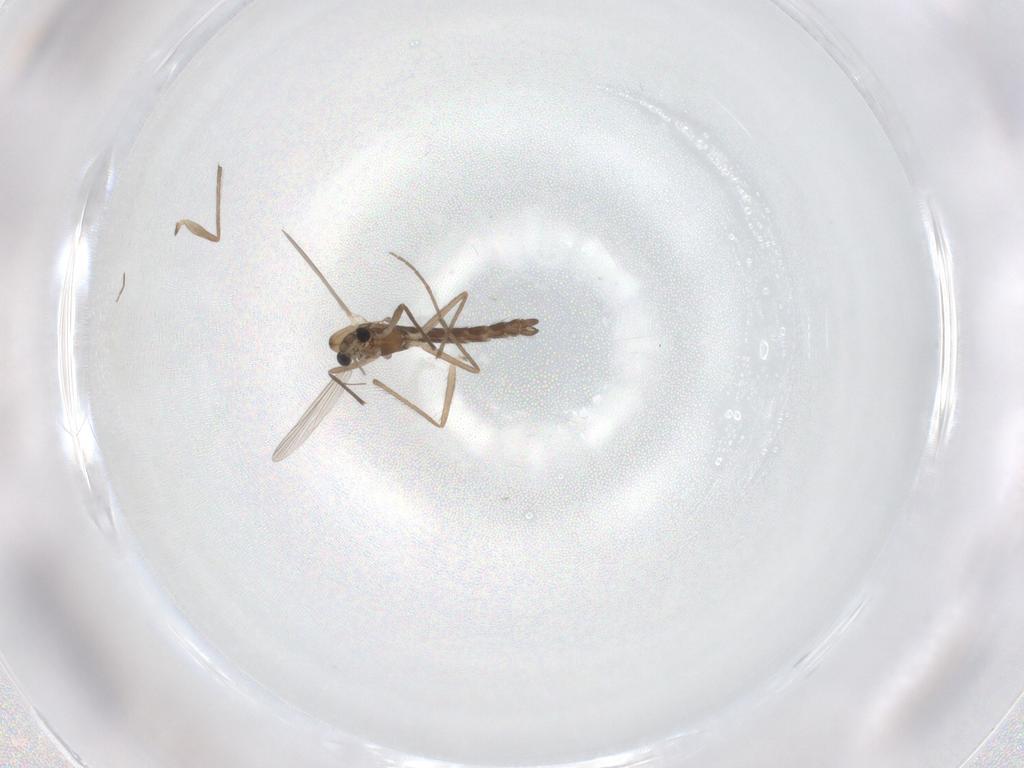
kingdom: Animalia
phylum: Arthropoda
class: Insecta
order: Diptera
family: Chironomidae
